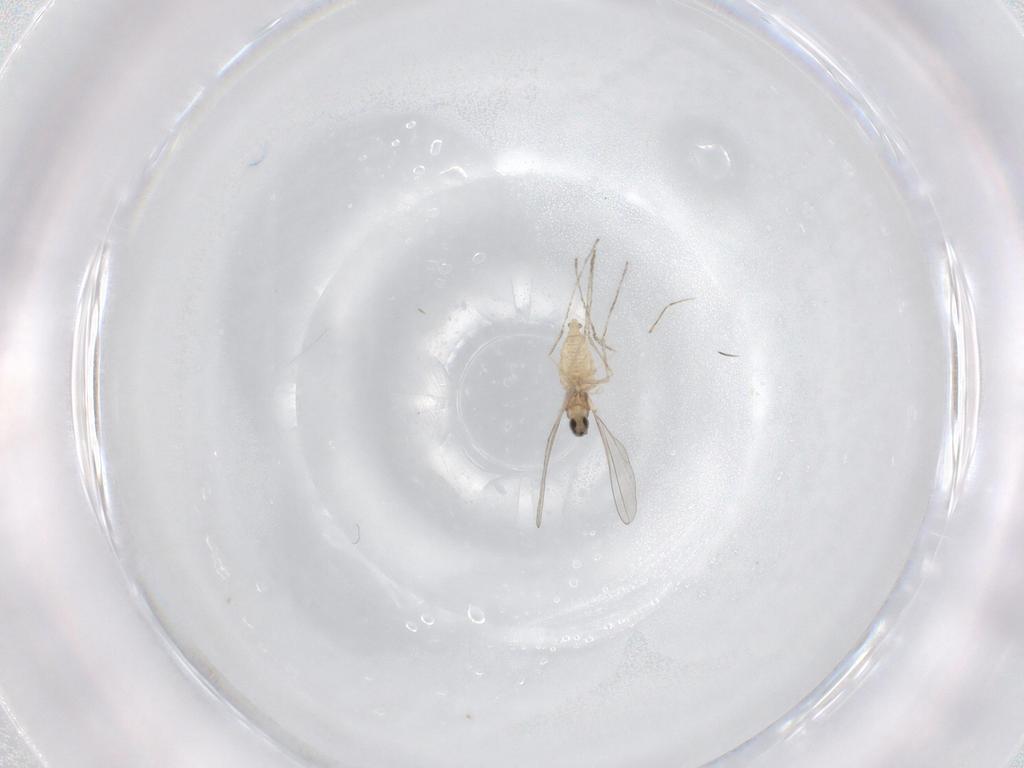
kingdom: Animalia
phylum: Arthropoda
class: Insecta
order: Diptera
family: Cecidomyiidae
